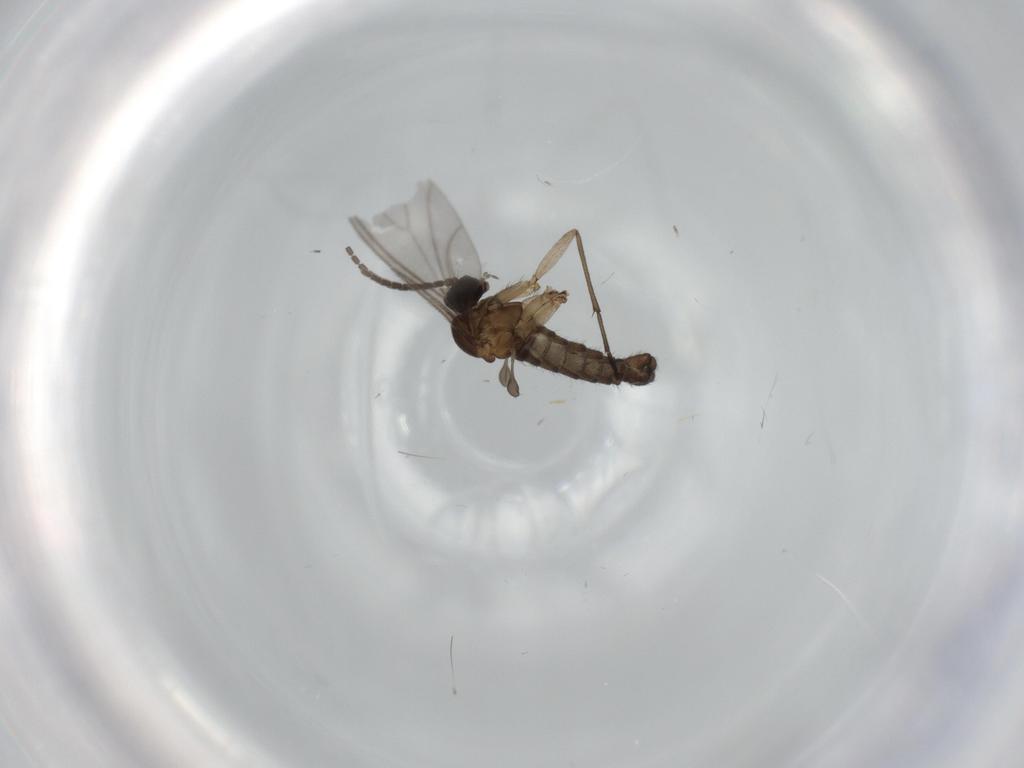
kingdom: Animalia
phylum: Arthropoda
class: Insecta
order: Diptera
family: Sciaridae
